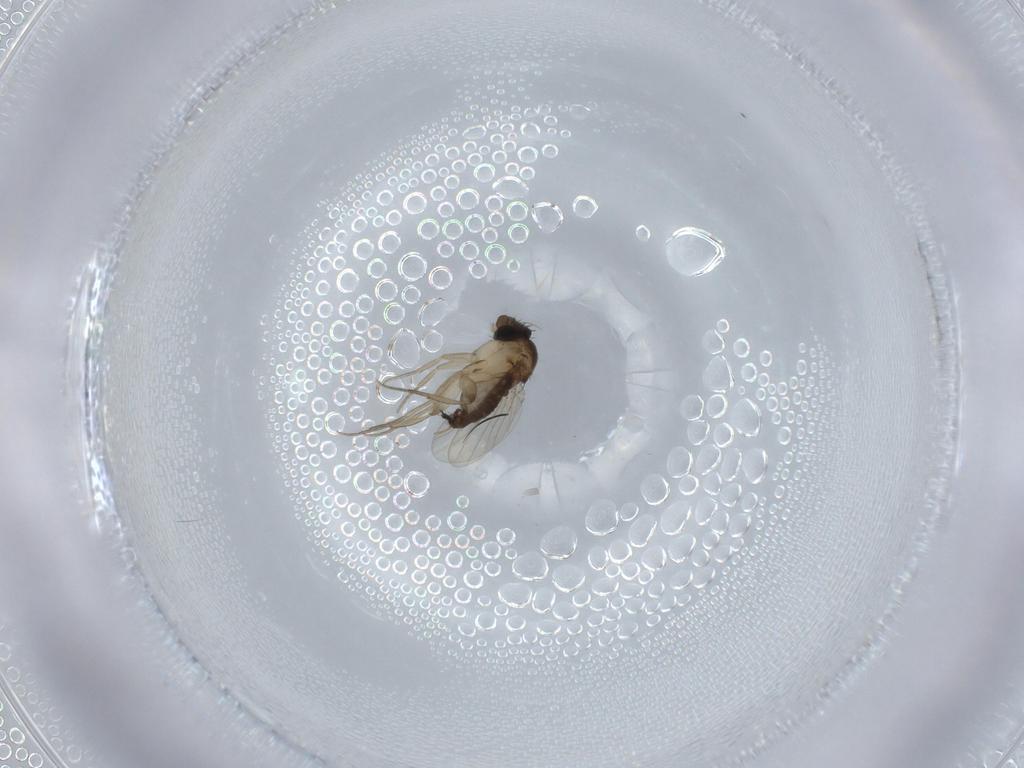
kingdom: Animalia
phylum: Arthropoda
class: Insecta
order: Diptera
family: Phoridae
